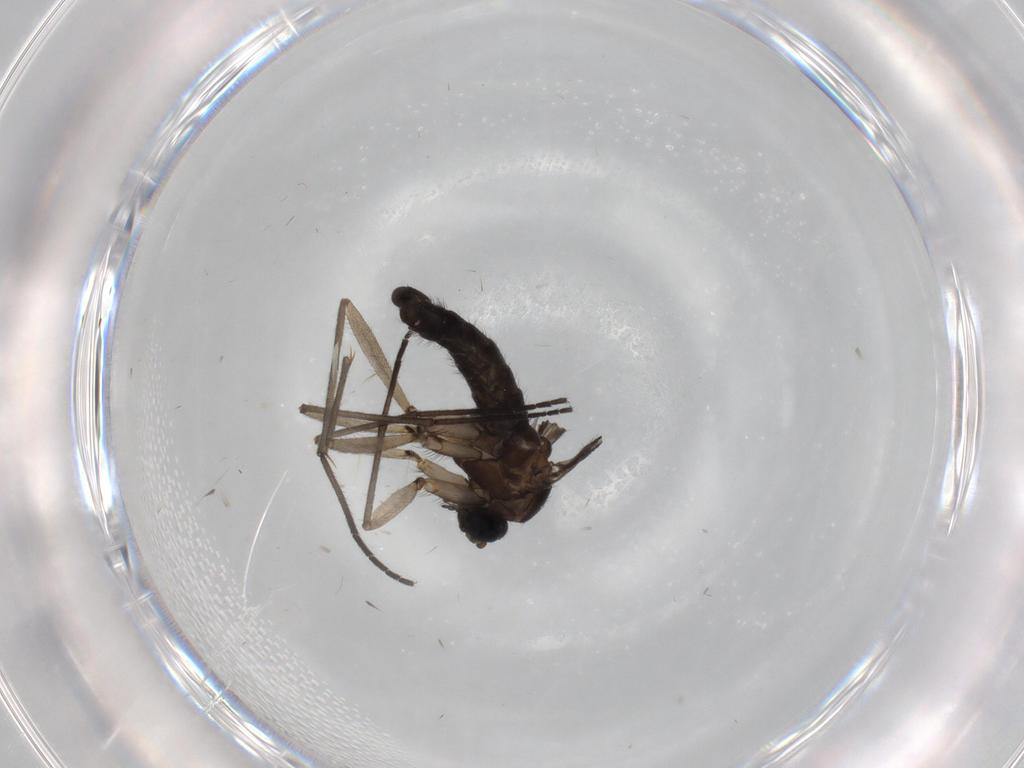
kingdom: Animalia
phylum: Arthropoda
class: Insecta
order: Diptera
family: Sciaridae
